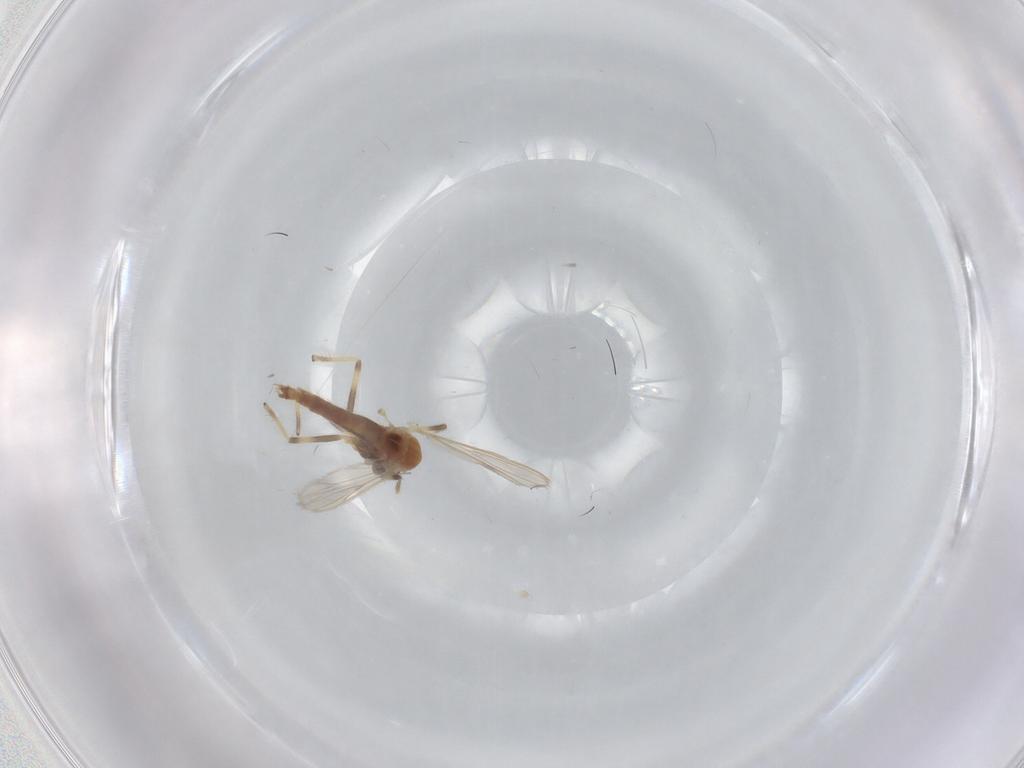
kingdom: Animalia
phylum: Arthropoda
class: Insecta
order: Diptera
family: Chironomidae
